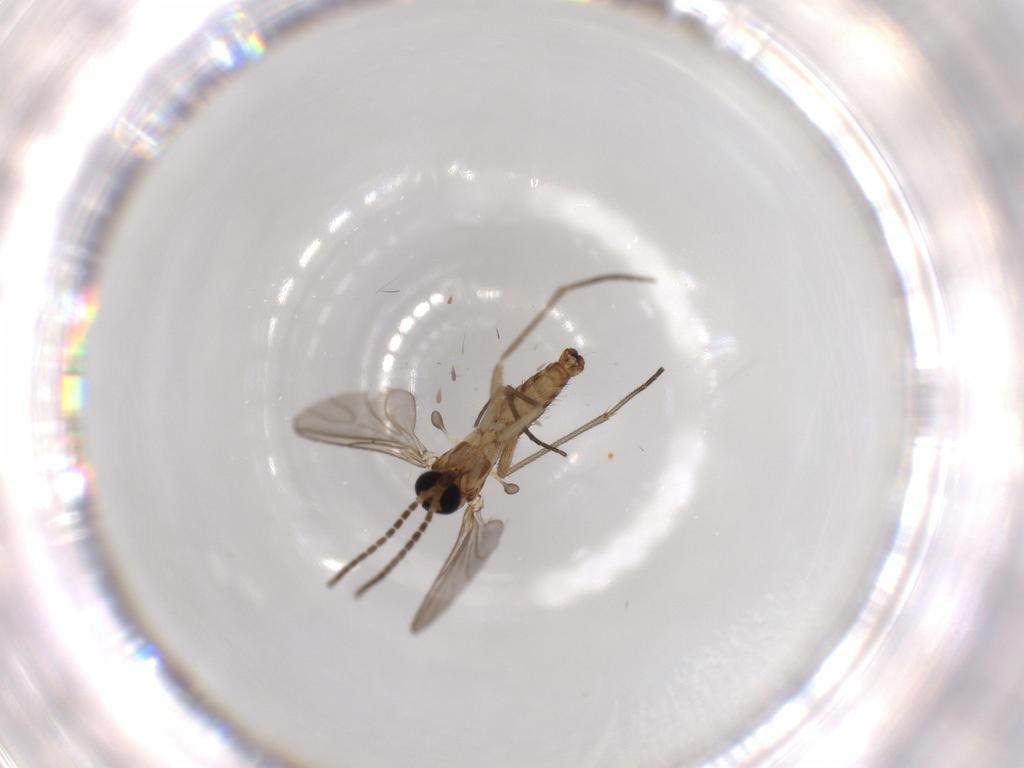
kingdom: Animalia
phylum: Arthropoda
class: Insecta
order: Diptera
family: Sciaridae
